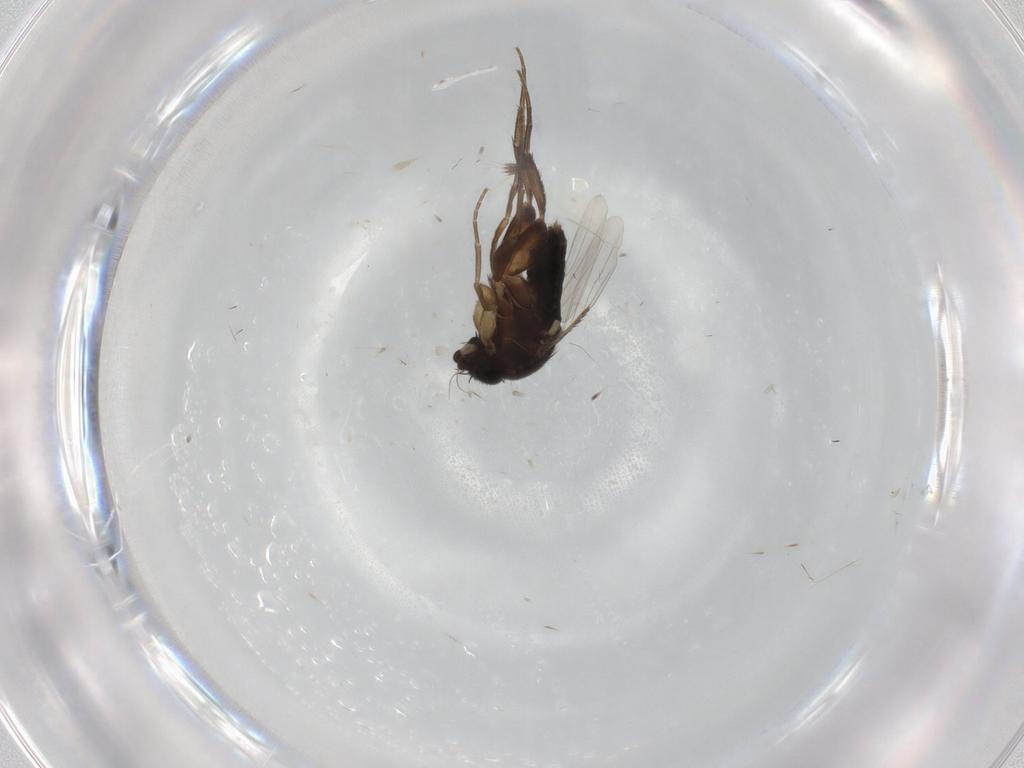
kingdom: Animalia
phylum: Arthropoda
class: Insecta
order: Diptera
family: Phoridae
